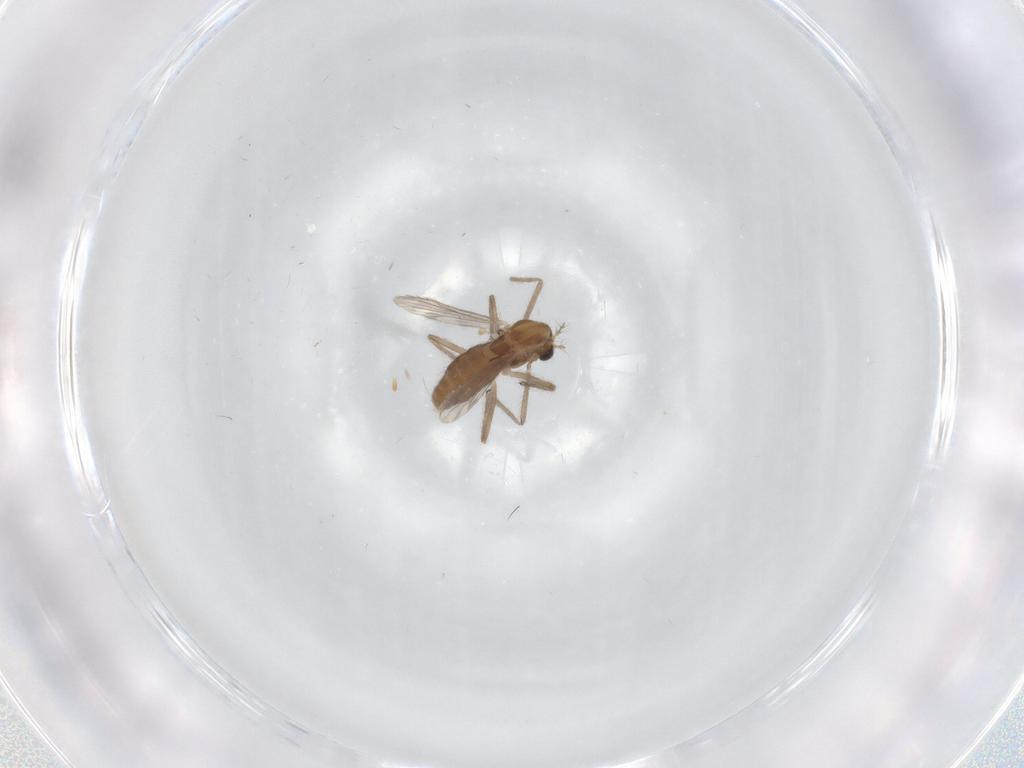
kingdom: Animalia
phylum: Arthropoda
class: Insecta
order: Diptera
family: Chironomidae
